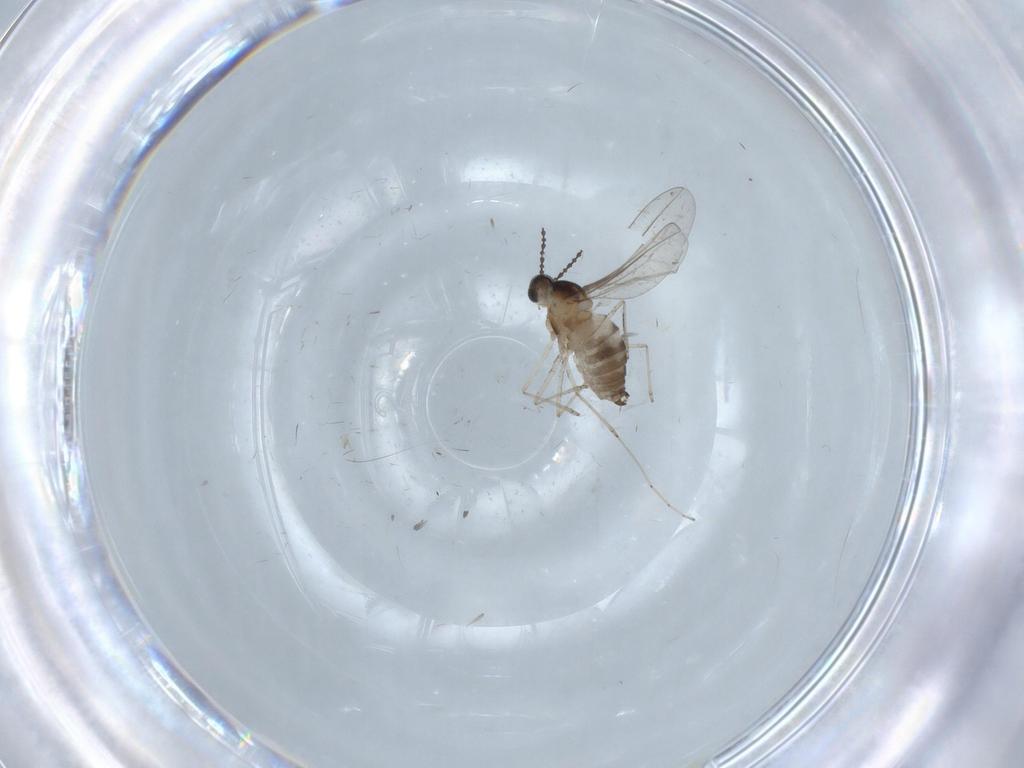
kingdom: Animalia
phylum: Arthropoda
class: Insecta
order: Diptera
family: Cecidomyiidae
